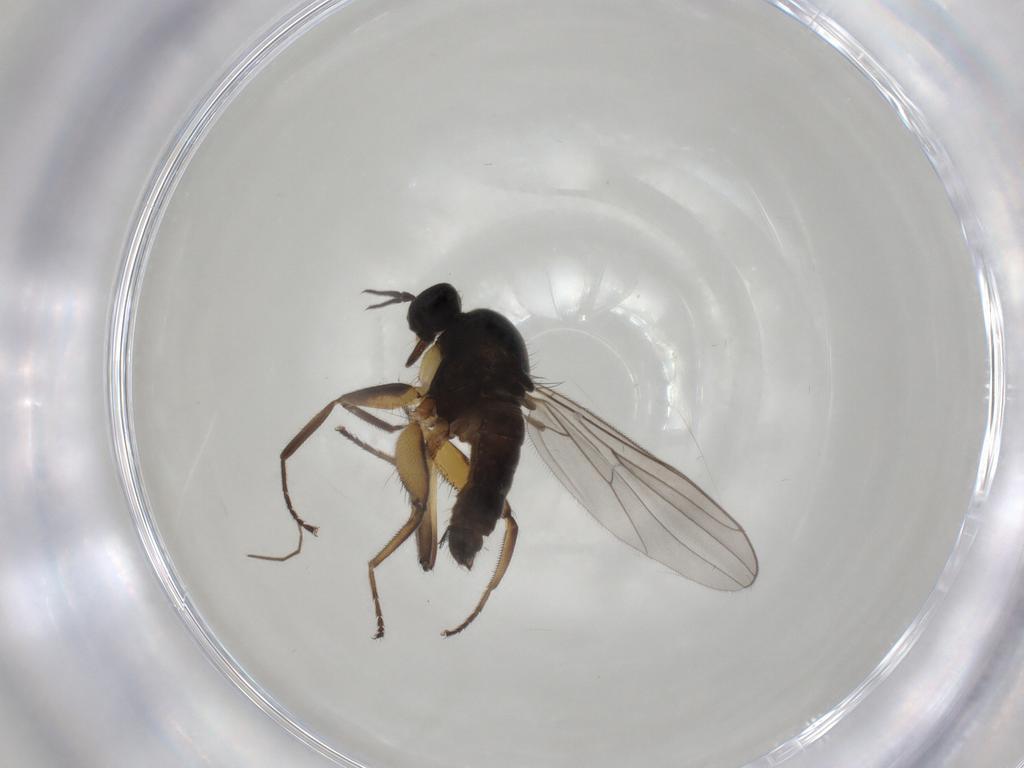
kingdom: Animalia
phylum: Arthropoda
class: Insecta
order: Diptera
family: Hybotidae
